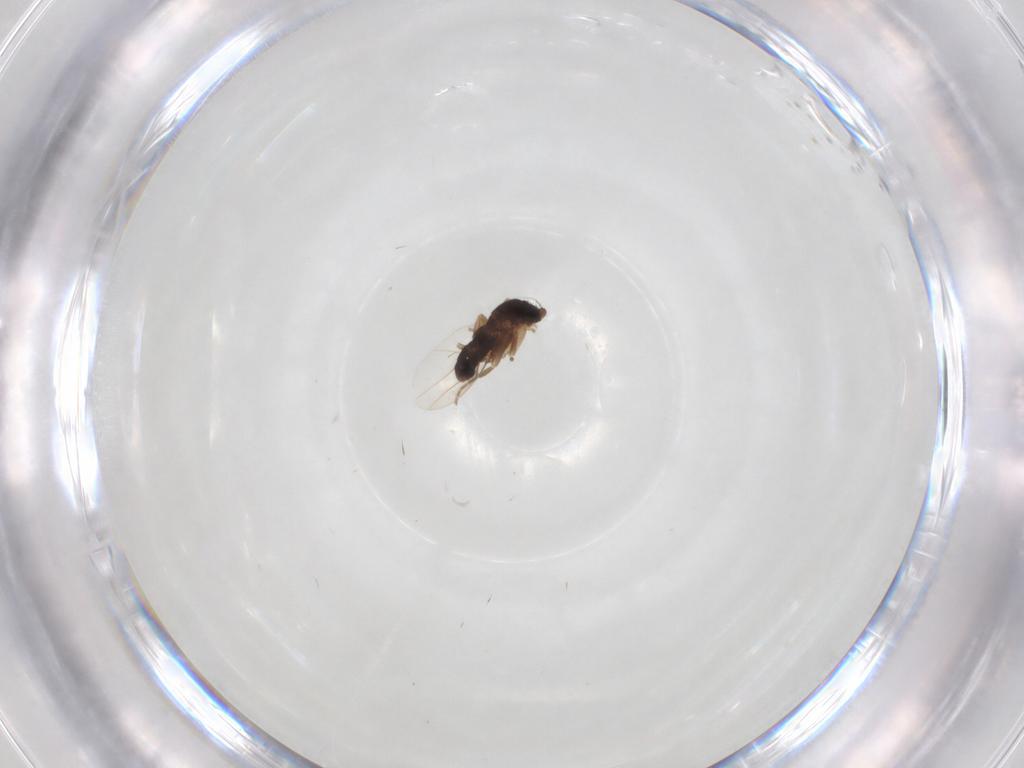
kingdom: Animalia
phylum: Arthropoda
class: Insecta
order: Diptera
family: Phoridae
